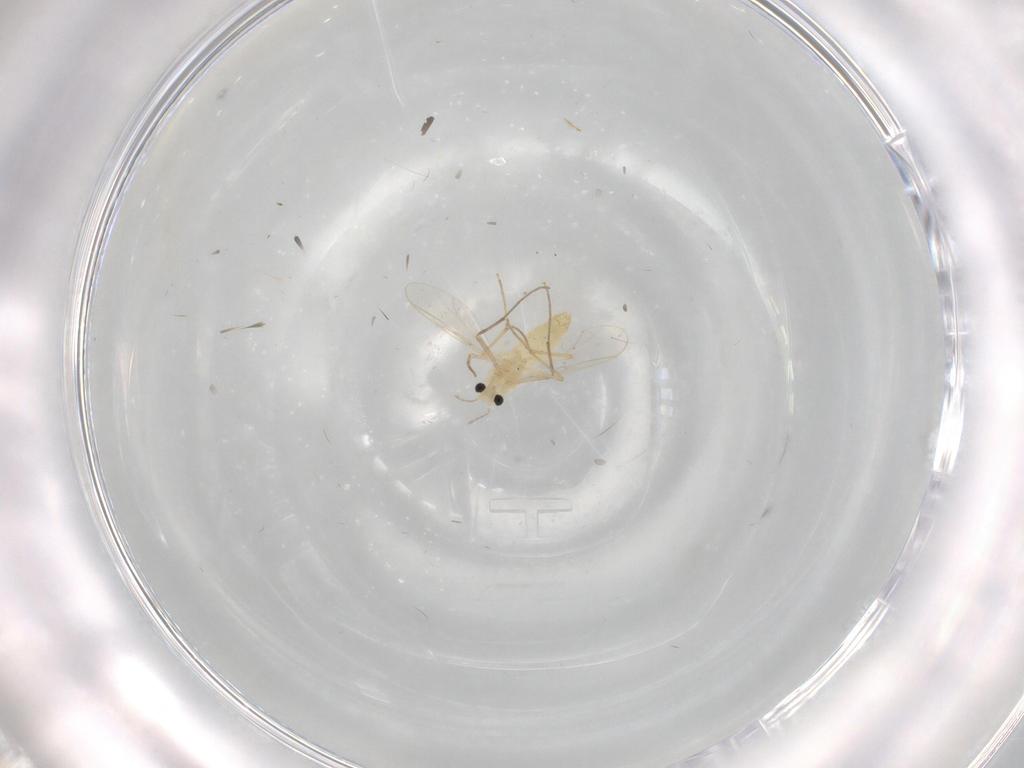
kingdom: Animalia
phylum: Arthropoda
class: Insecta
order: Diptera
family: Chironomidae
